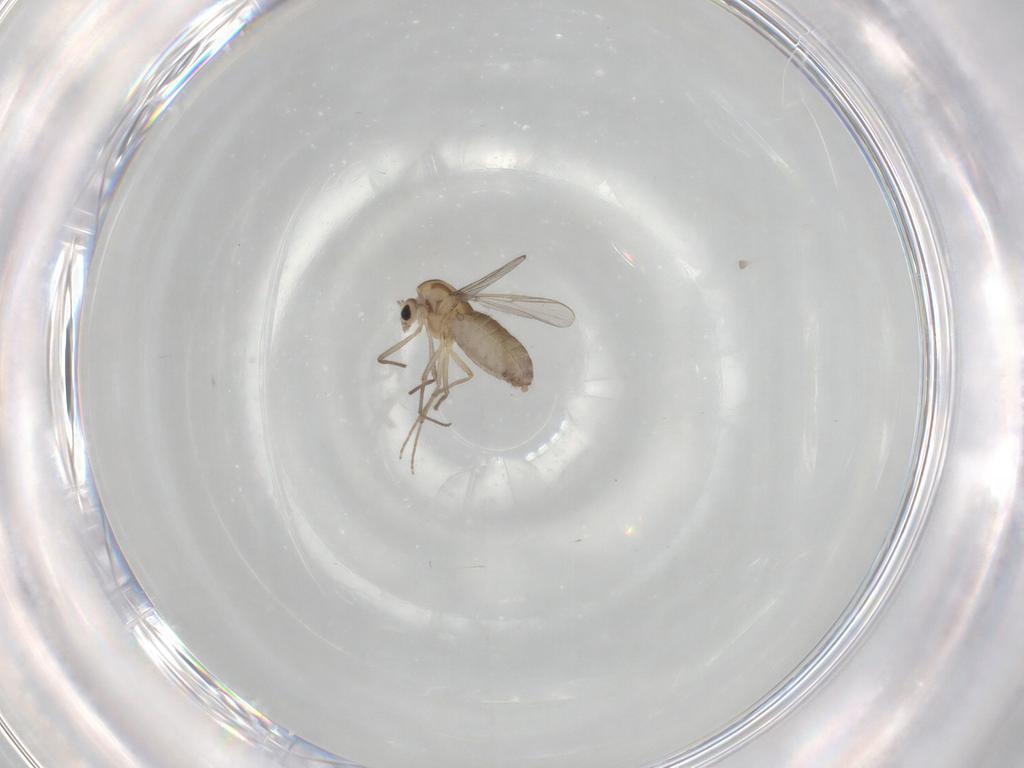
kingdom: Animalia
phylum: Arthropoda
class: Insecta
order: Diptera
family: Chironomidae
